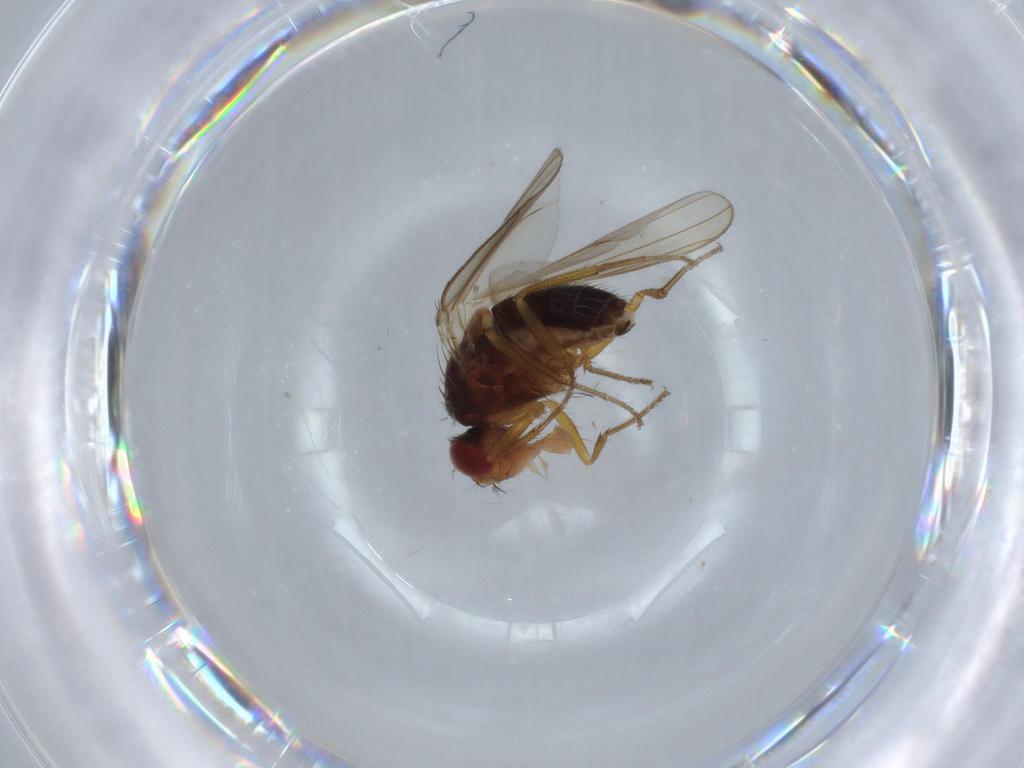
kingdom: Animalia
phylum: Arthropoda
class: Insecta
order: Diptera
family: Drosophilidae
